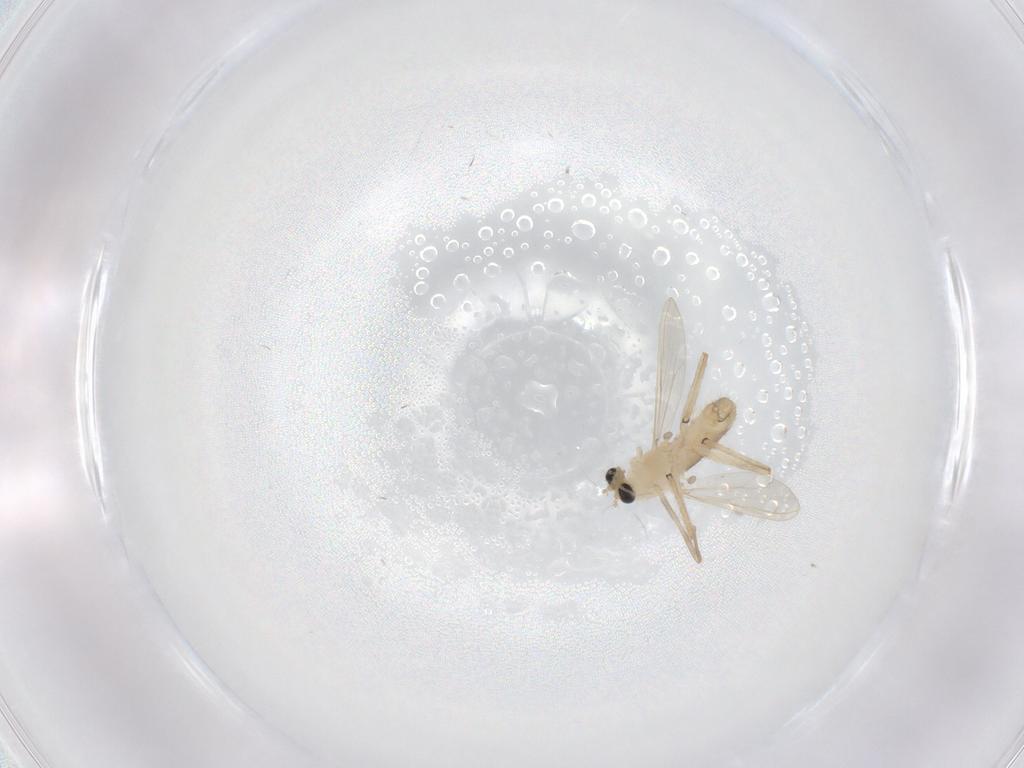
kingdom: Animalia
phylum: Arthropoda
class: Insecta
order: Diptera
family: Chironomidae
